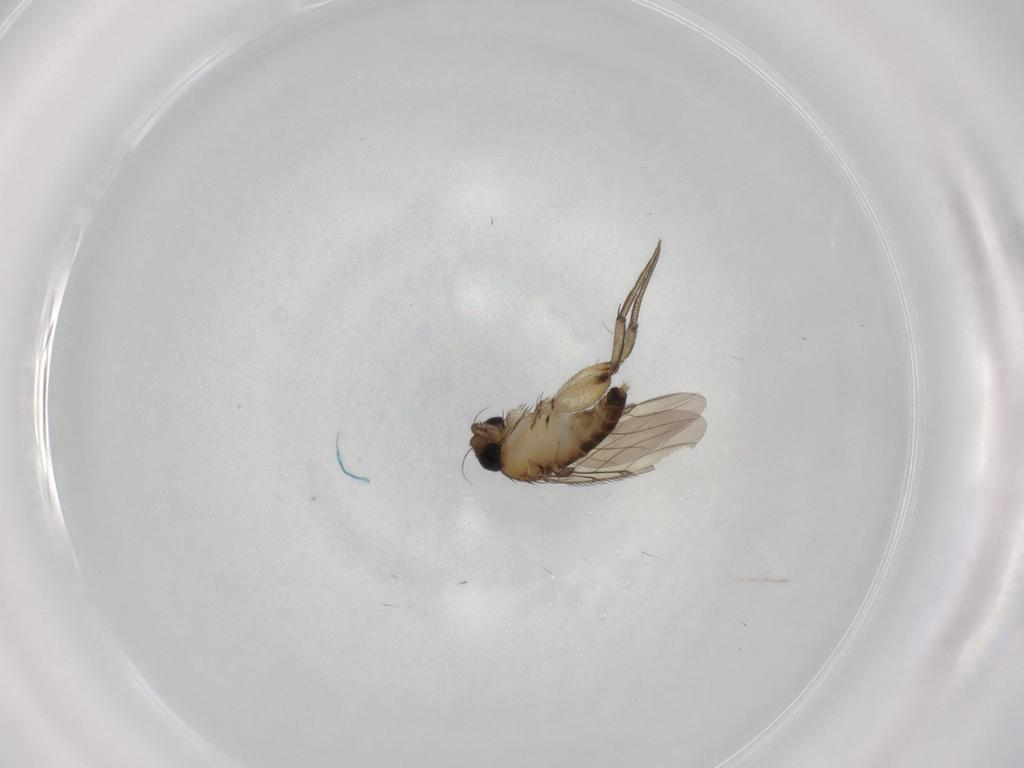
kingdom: Animalia
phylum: Arthropoda
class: Insecta
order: Diptera
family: Phoridae
